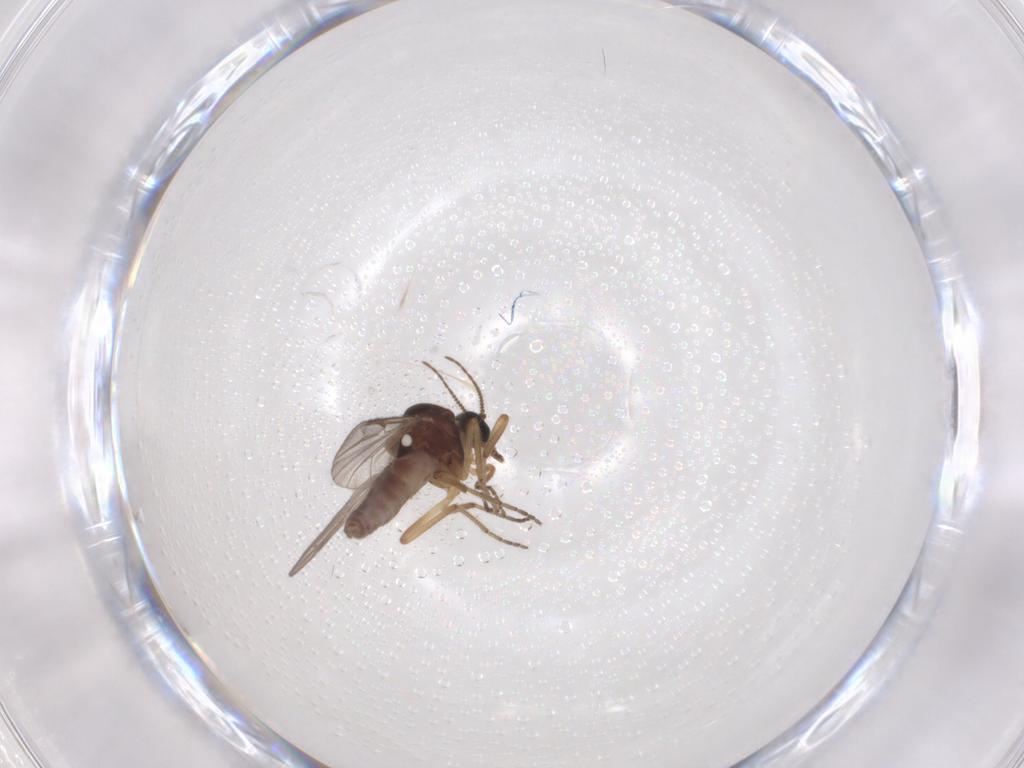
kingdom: Animalia
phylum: Arthropoda
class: Insecta
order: Diptera
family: Ceratopogonidae
